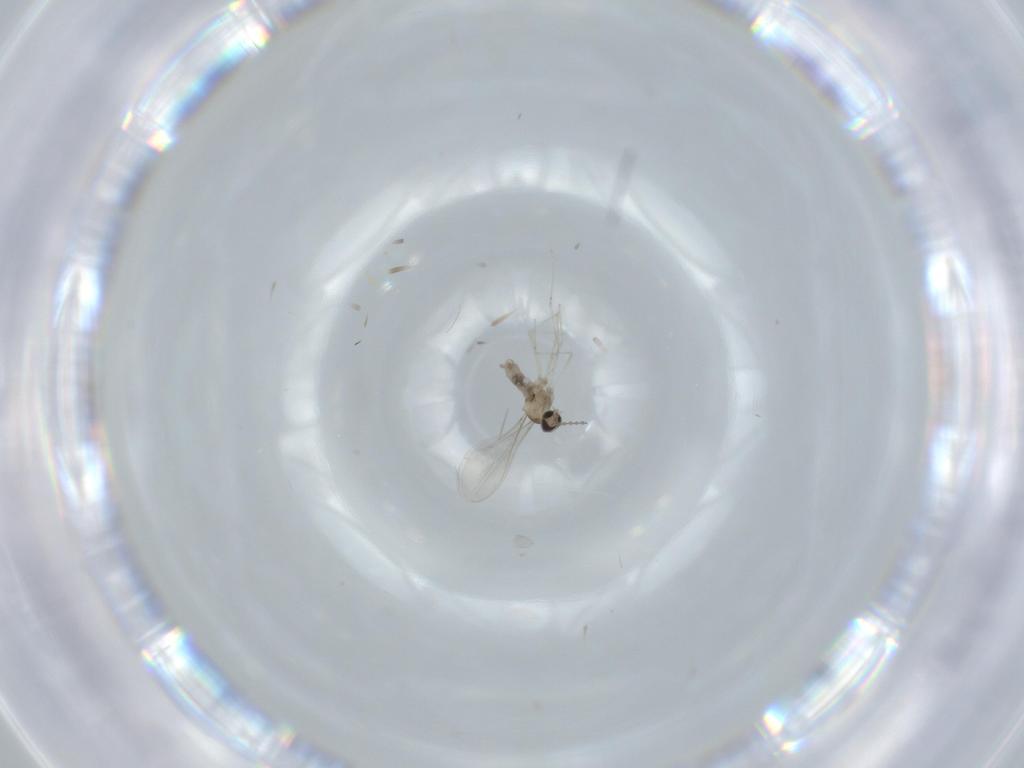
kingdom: Animalia
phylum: Arthropoda
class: Insecta
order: Diptera
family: Cecidomyiidae
